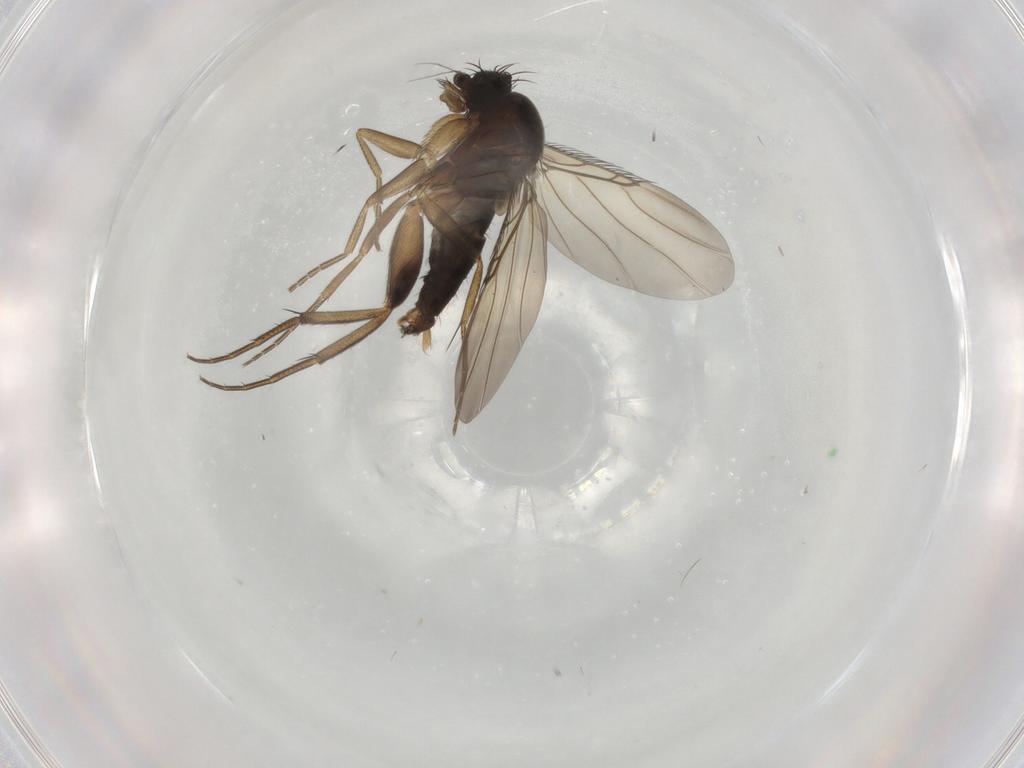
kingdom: Animalia
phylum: Arthropoda
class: Insecta
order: Diptera
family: Phoridae
